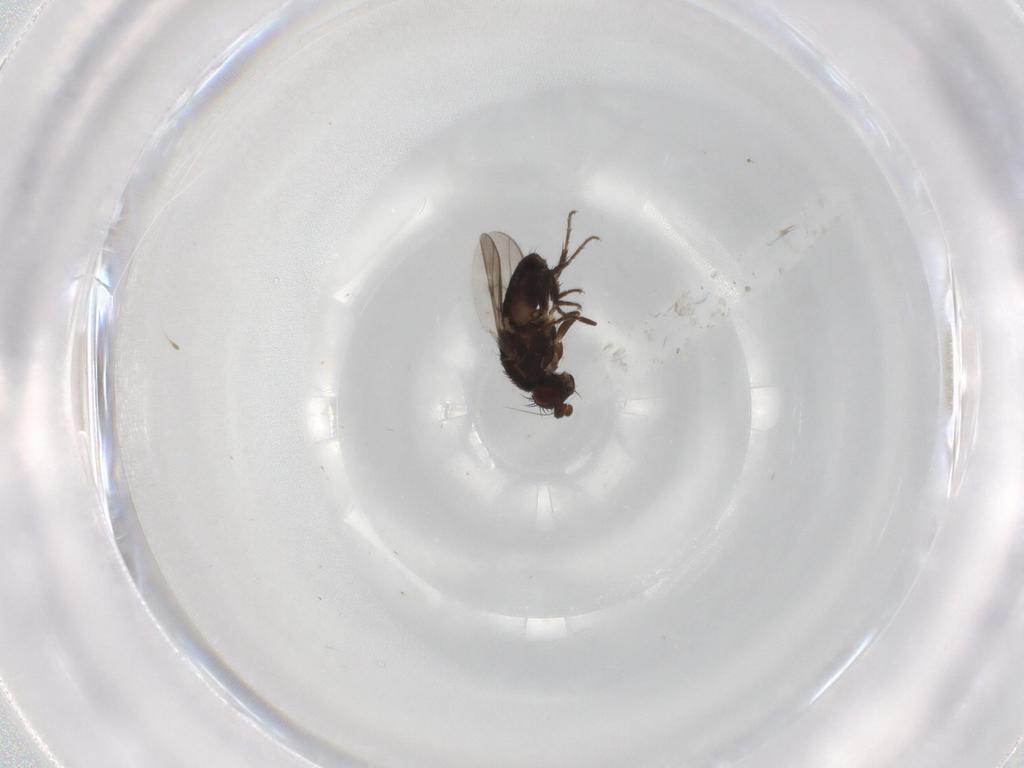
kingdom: Animalia
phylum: Arthropoda
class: Insecta
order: Diptera
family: Sphaeroceridae
